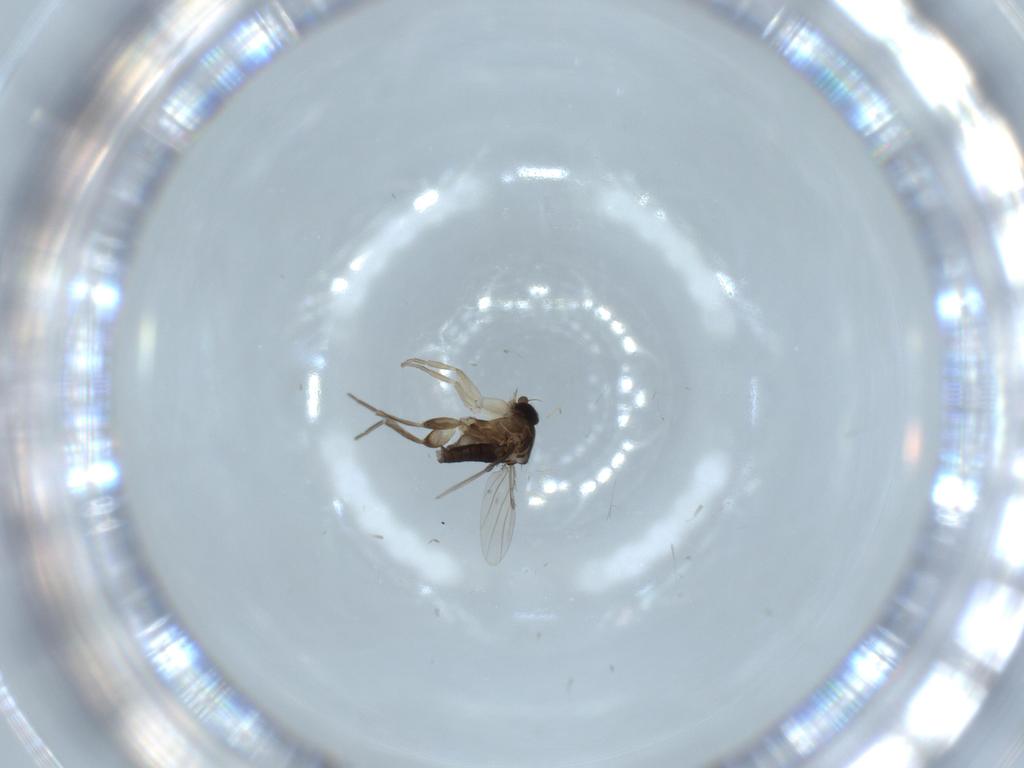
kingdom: Animalia
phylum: Arthropoda
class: Insecta
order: Diptera
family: Phoridae
